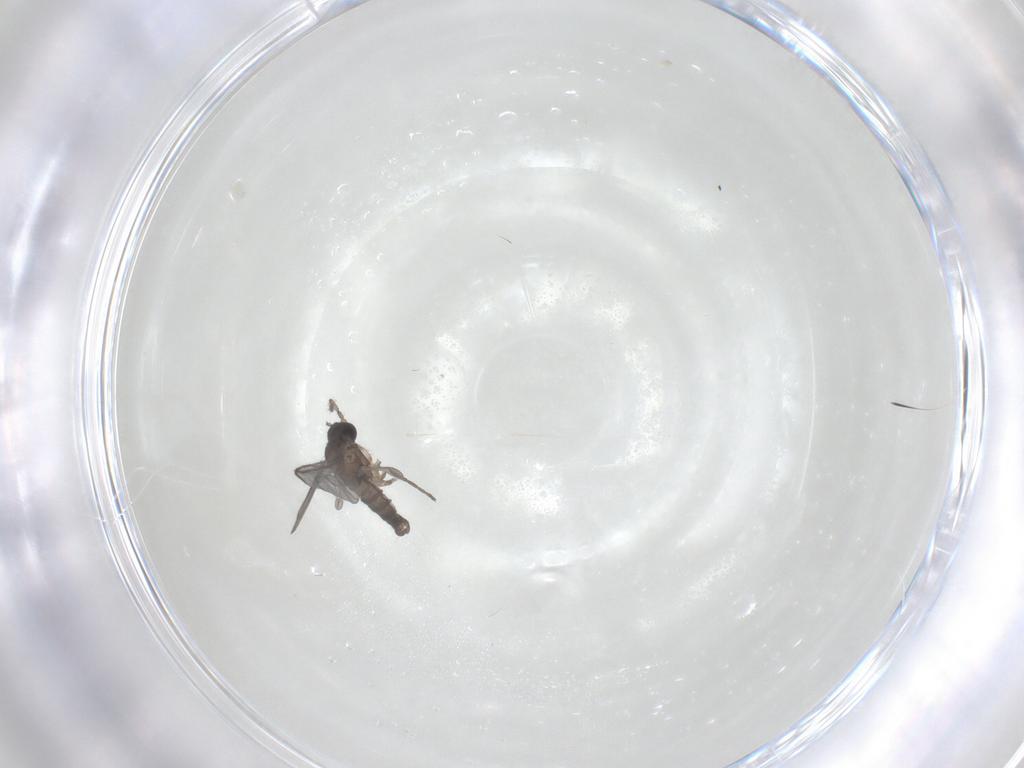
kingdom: Animalia
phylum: Arthropoda
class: Insecta
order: Diptera
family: Sciaridae
